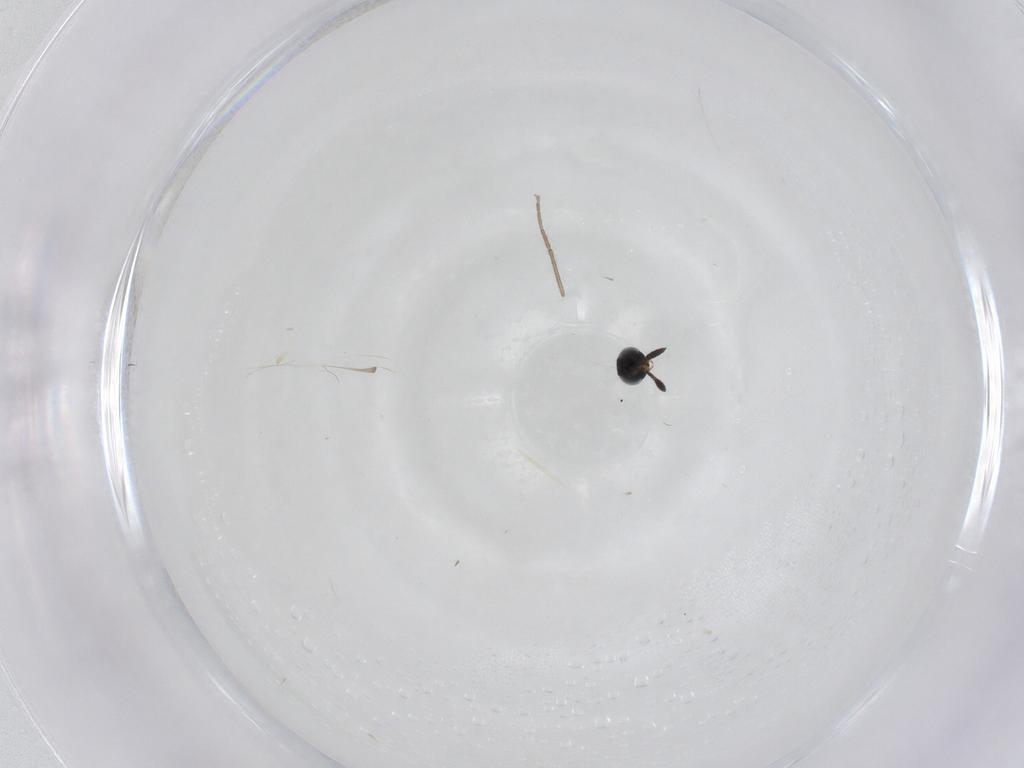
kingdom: Animalia
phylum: Arthropoda
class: Insecta
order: Hymenoptera
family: Scelionidae
